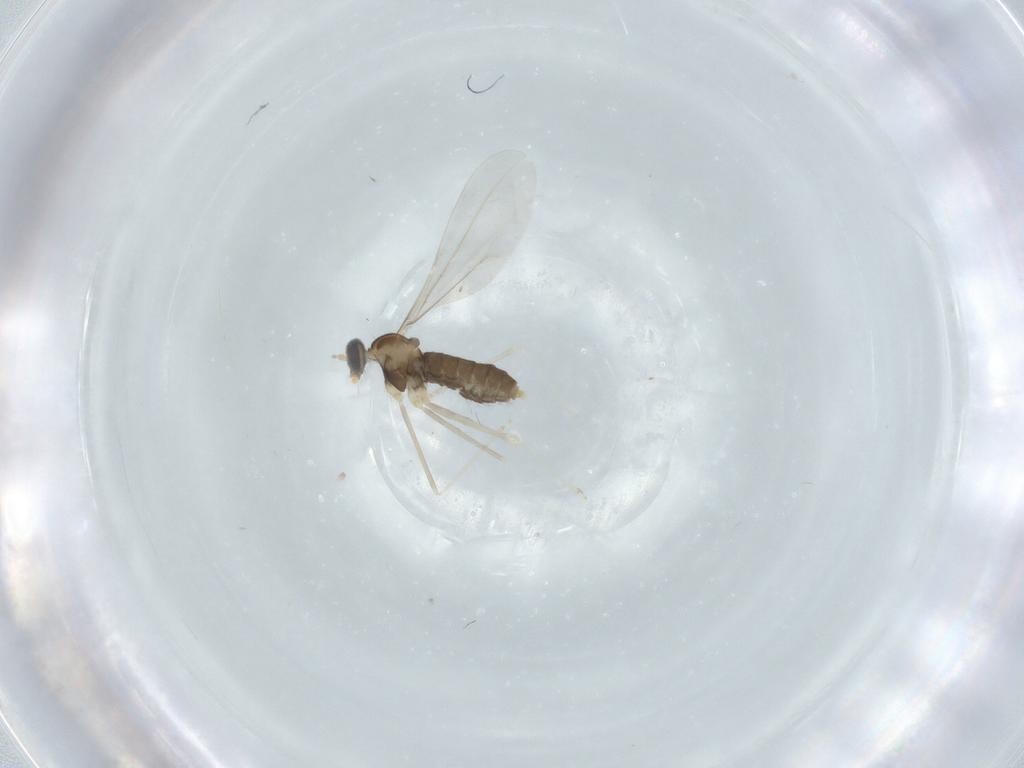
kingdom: Animalia
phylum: Arthropoda
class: Insecta
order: Diptera
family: Cecidomyiidae
